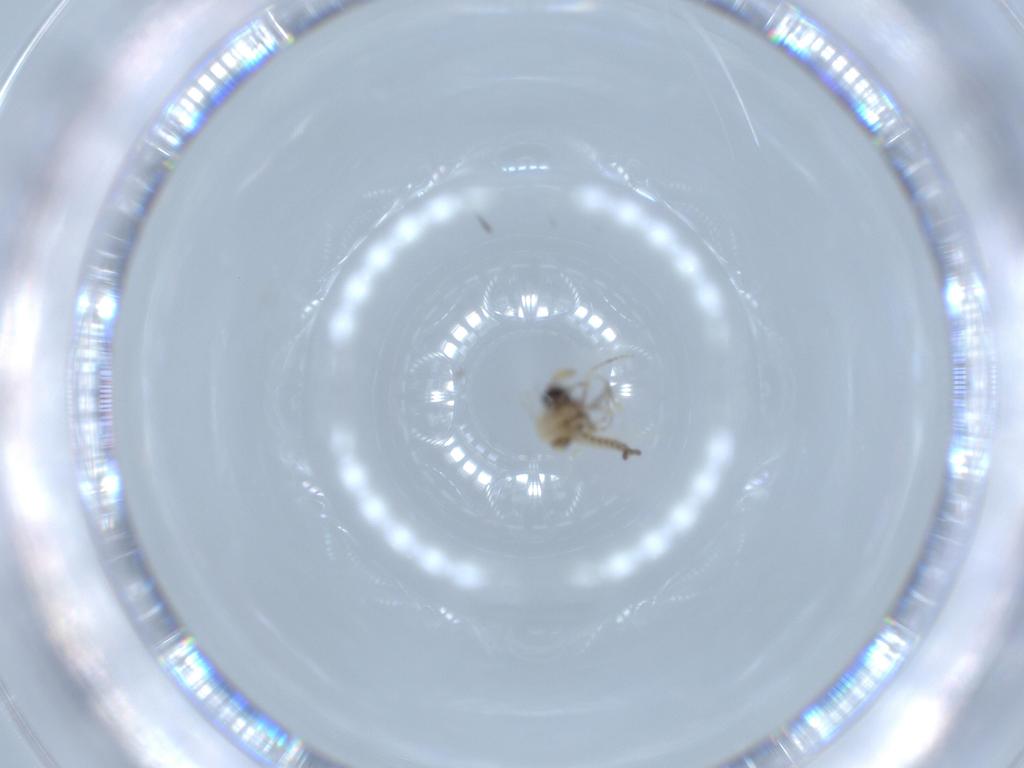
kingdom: Animalia
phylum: Arthropoda
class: Insecta
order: Diptera
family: Ceratopogonidae
